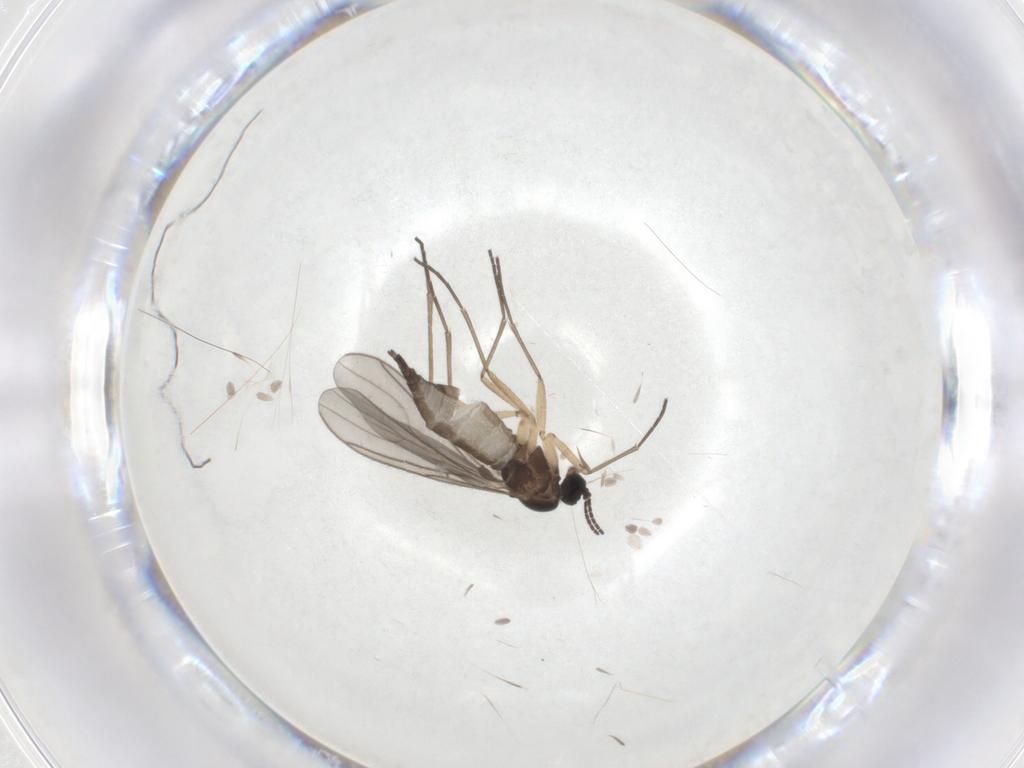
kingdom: Animalia
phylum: Arthropoda
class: Insecta
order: Diptera
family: Sciaridae
